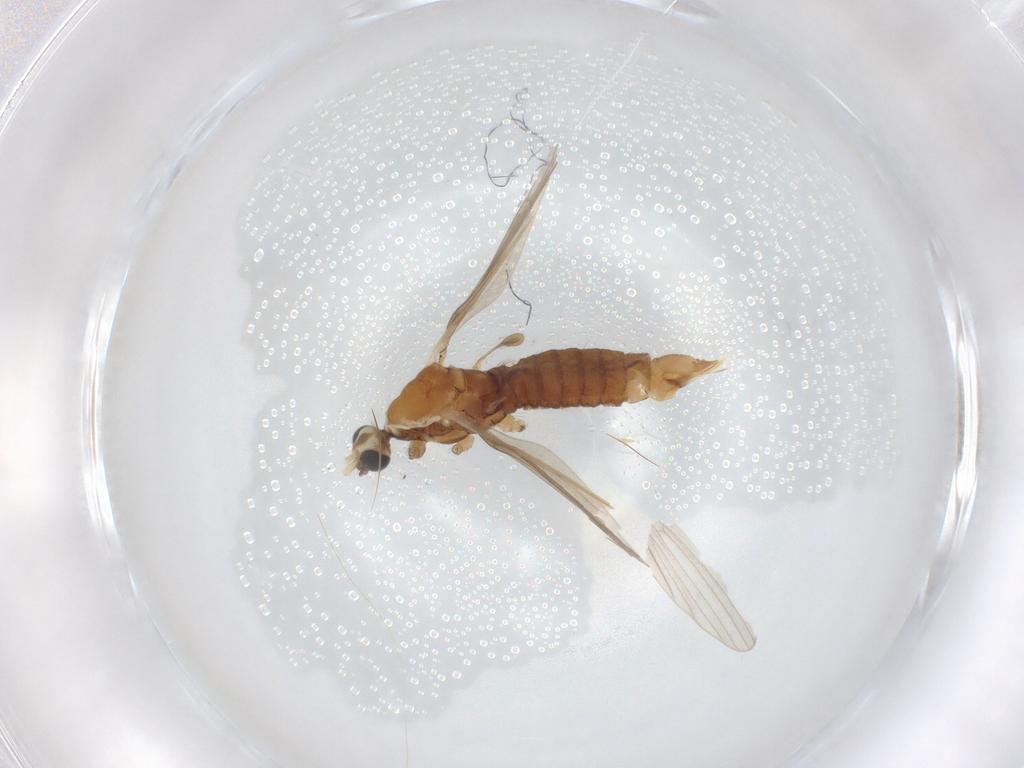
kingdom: Animalia
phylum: Arthropoda
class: Insecta
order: Diptera
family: Limoniidae
